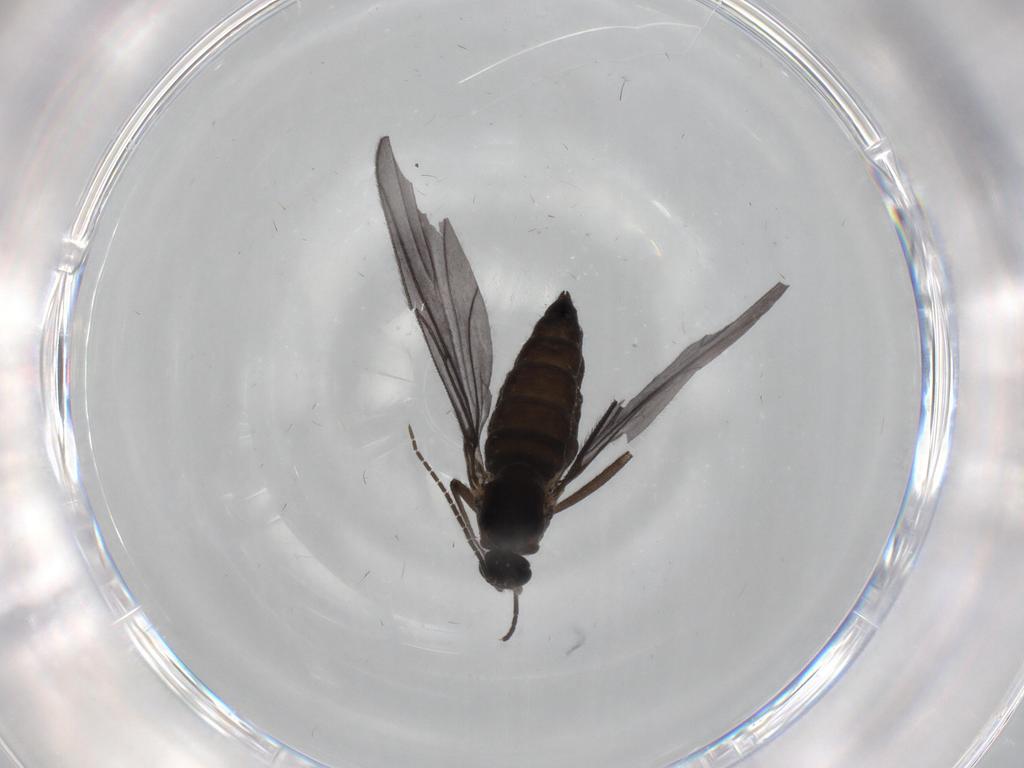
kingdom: Animalia
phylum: Arthropoda
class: Insecta
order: Diptera
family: Sciaridae
